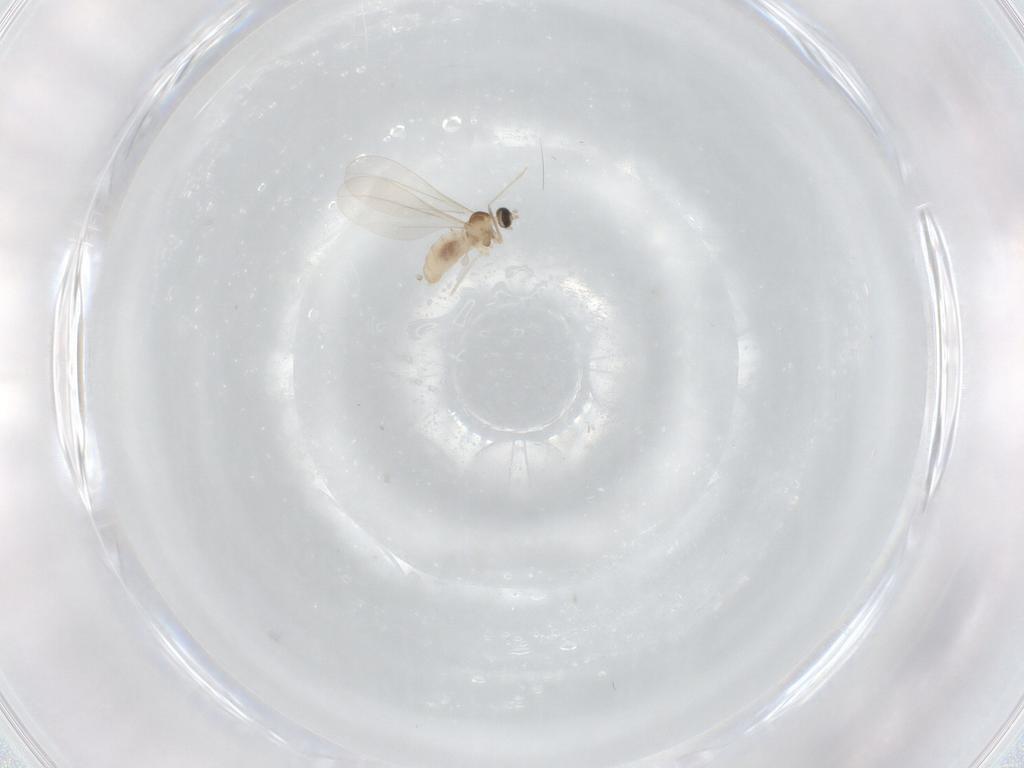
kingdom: Animalia
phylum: Arthropoda
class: Insecta
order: Diptera
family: Cecidomyiidae
